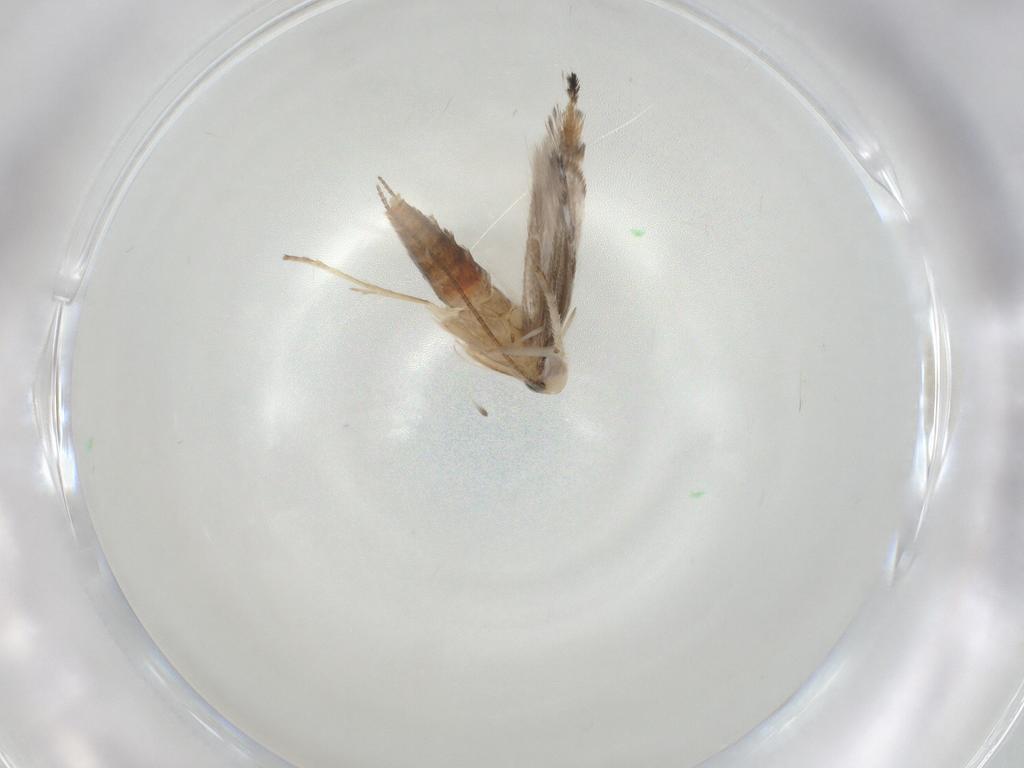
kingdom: Animalia
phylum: Arthropoda
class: Insecta
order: Lepidoptera
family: Gracillariidae
